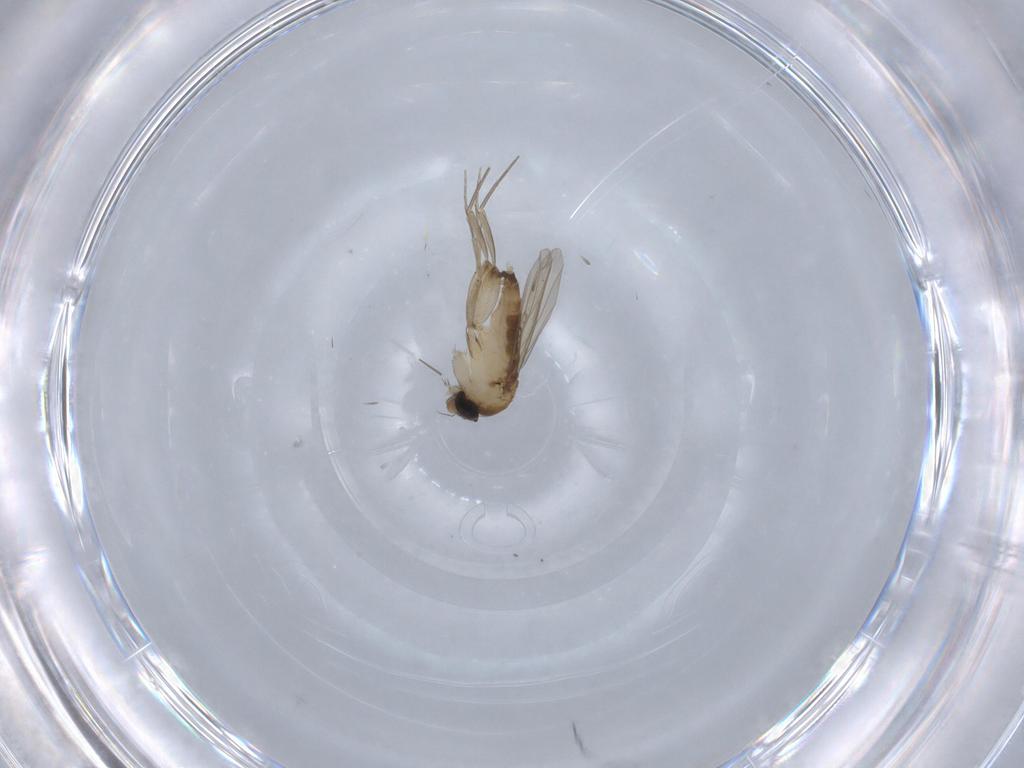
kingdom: Animalia
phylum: Arthropoda
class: Insecta
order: Diptera
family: Phoridae
